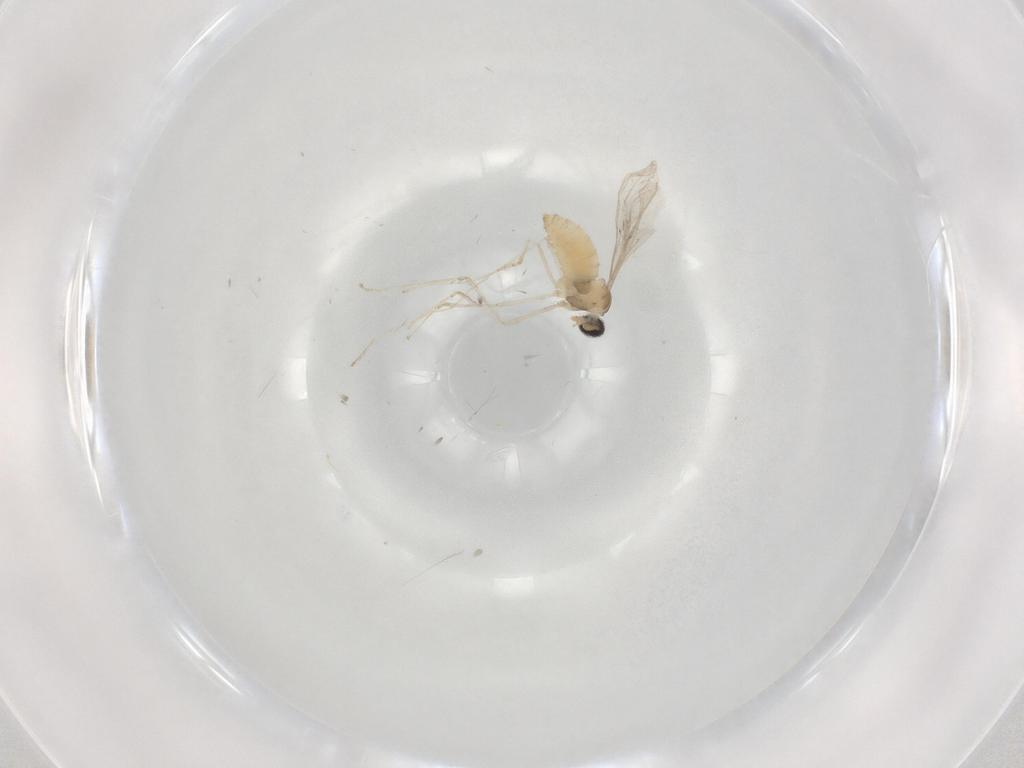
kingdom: Animalia
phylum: Arthropoda
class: Insecta
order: Diptera
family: Cecidomyiidae
